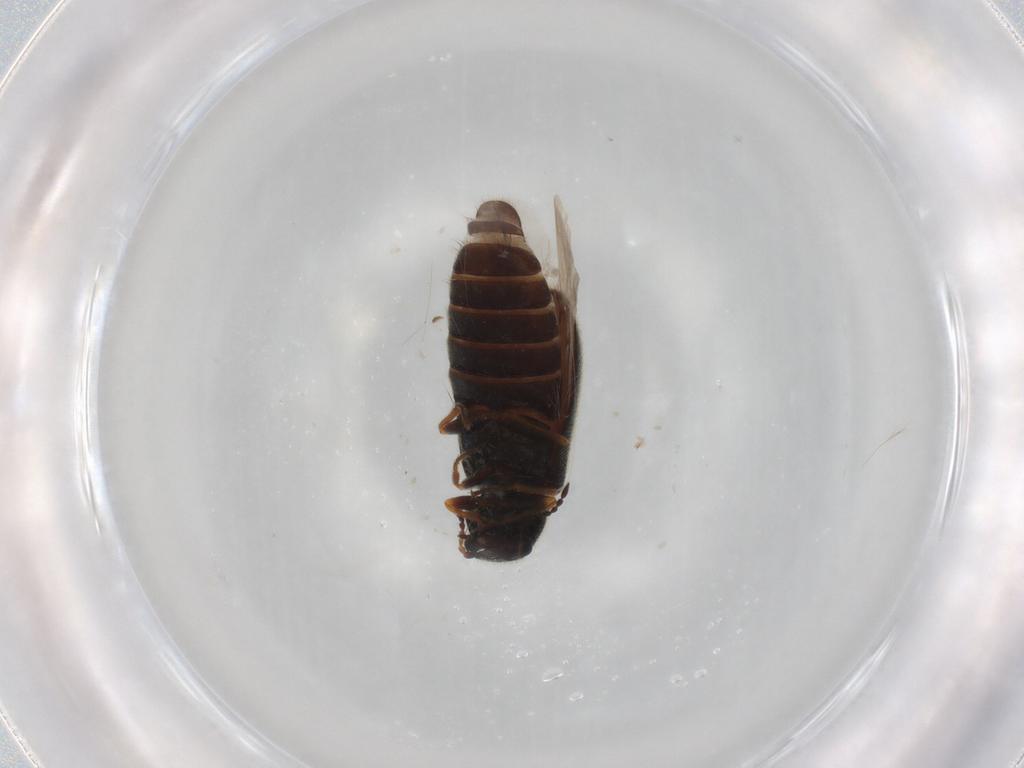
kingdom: Animalia
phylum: Arthropoda
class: Insecta
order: Coleoptera
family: Melyridae
